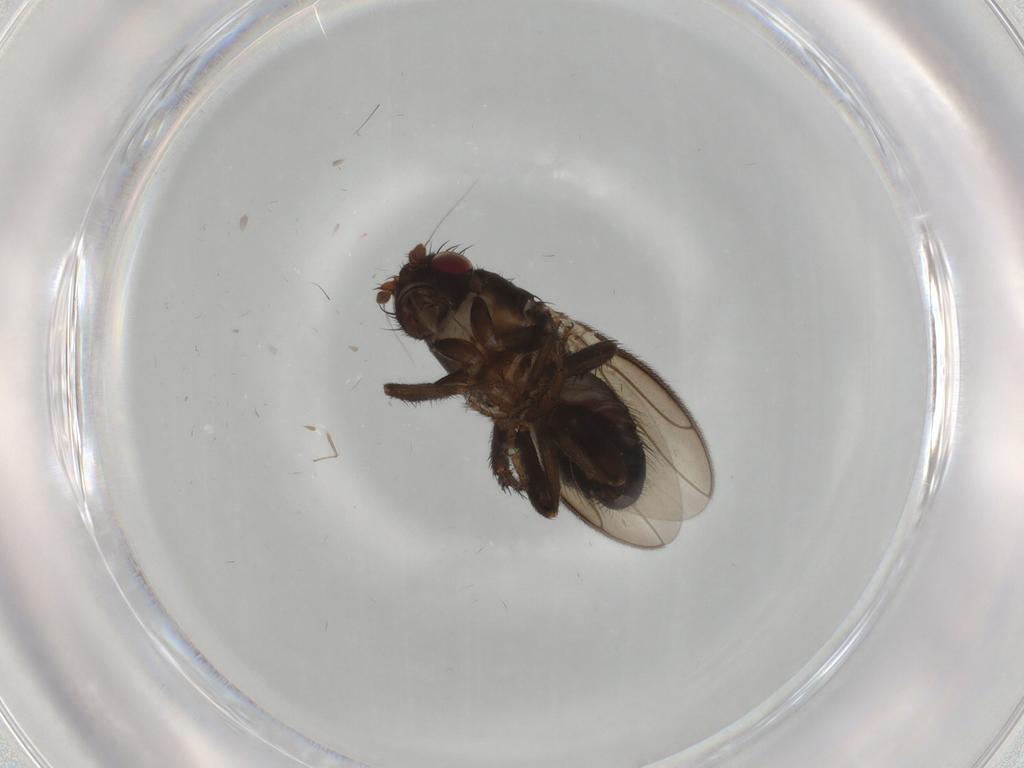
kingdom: Animalia
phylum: Arthropoda
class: Insecta
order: Diptera
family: Sphaeroceridae
